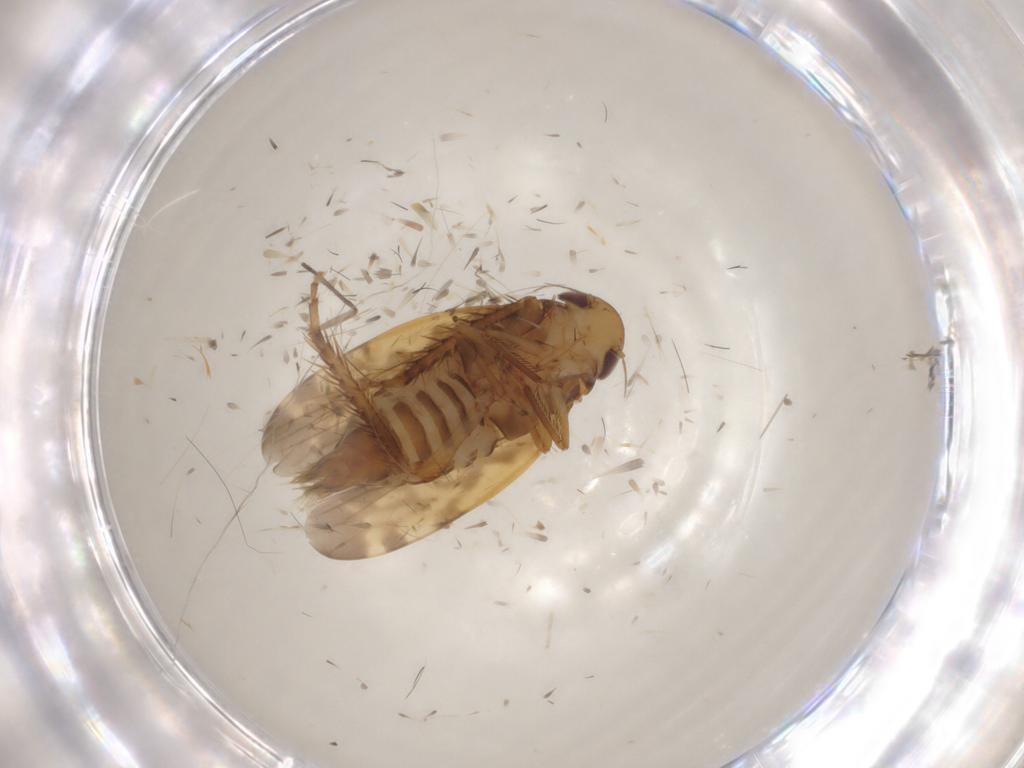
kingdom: Animalia
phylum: Arthropoda
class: Insecta
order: Hemiptera
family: Cicadellidae
